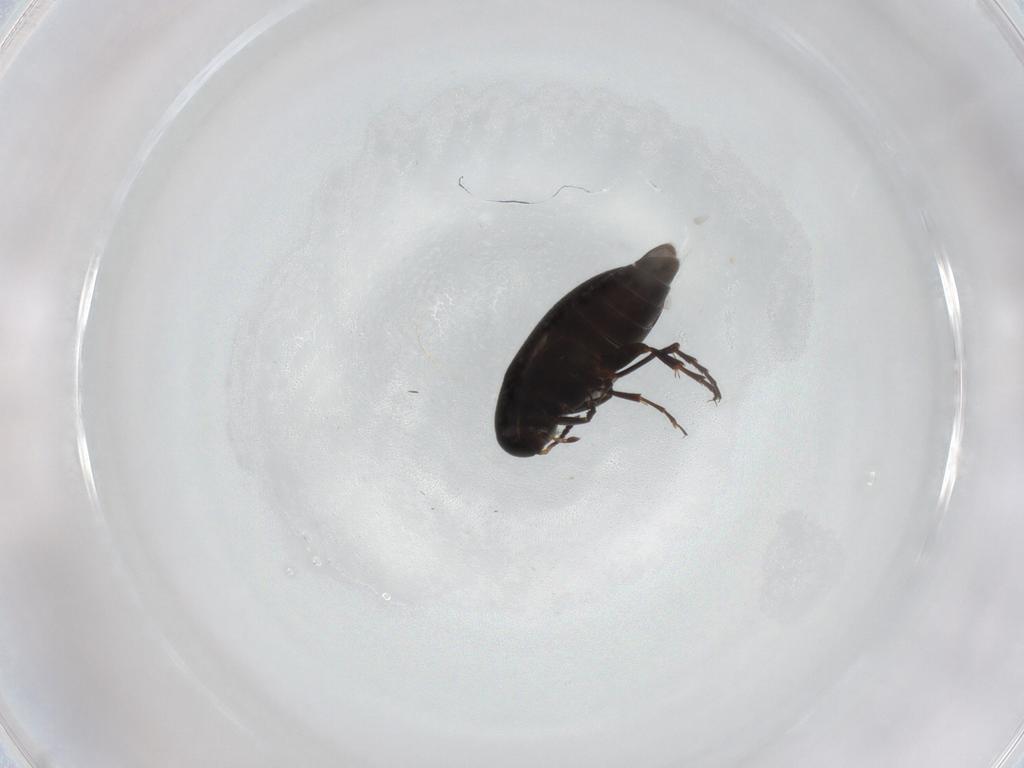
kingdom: Animalia
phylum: Arthropoda
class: Insecta
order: Coleoptera
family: Scraptiidae
